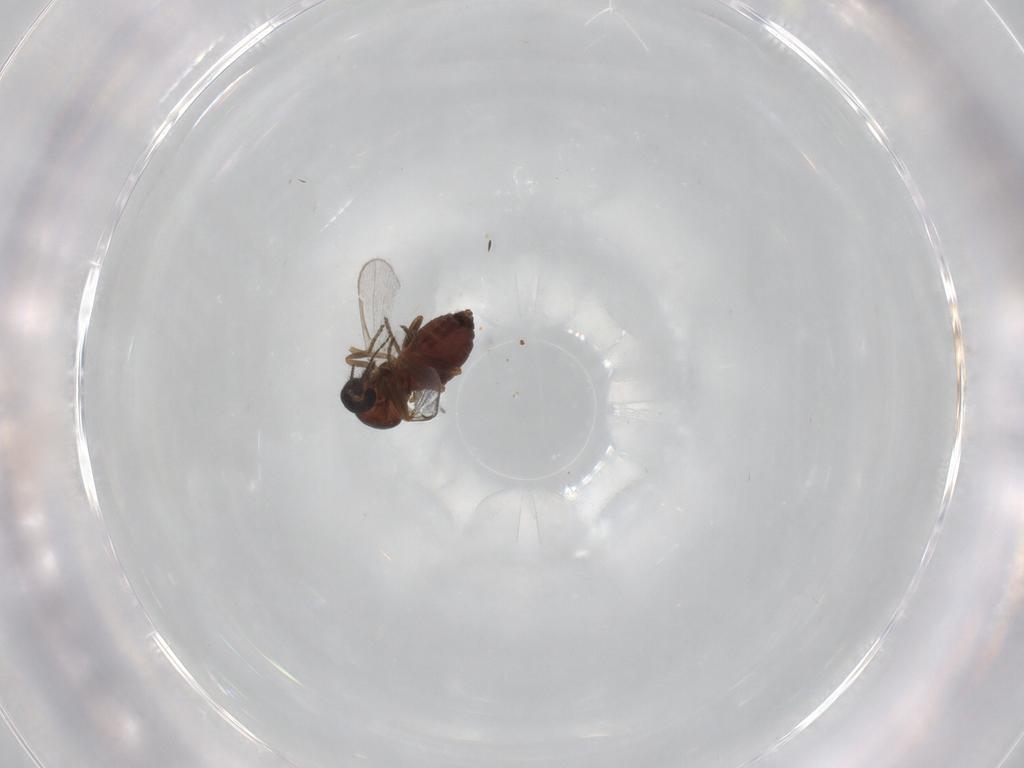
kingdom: Animalia
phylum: Arthropoda
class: Insecta
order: Diptera
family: Ceratopogonidae
